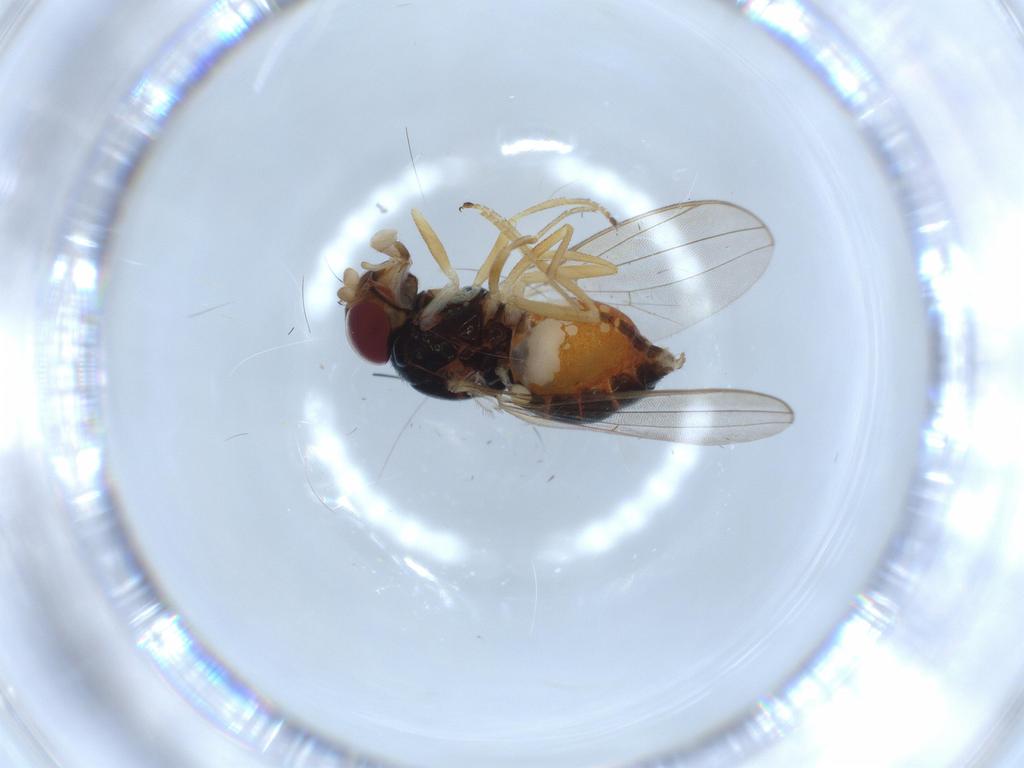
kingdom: Animalia
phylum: Arthropoda
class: Insecta
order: Diptera
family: Asteiidae
